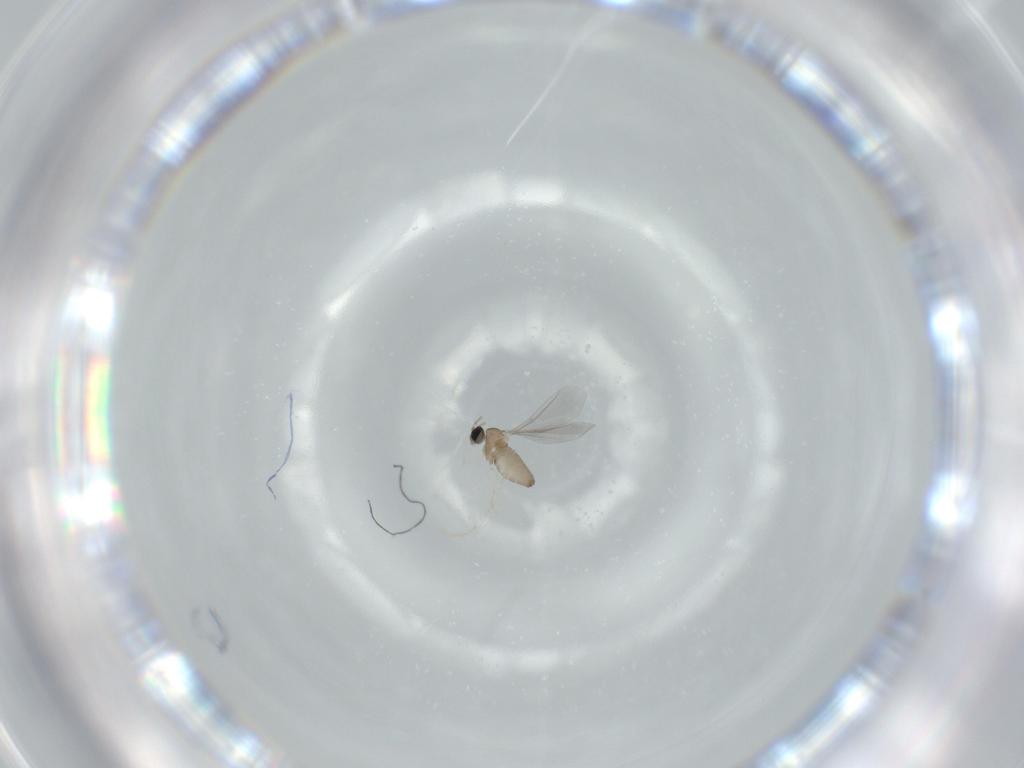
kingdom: Animalia
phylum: Arthropoda
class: Insecta
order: Diptera
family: Cecidomyiidae
